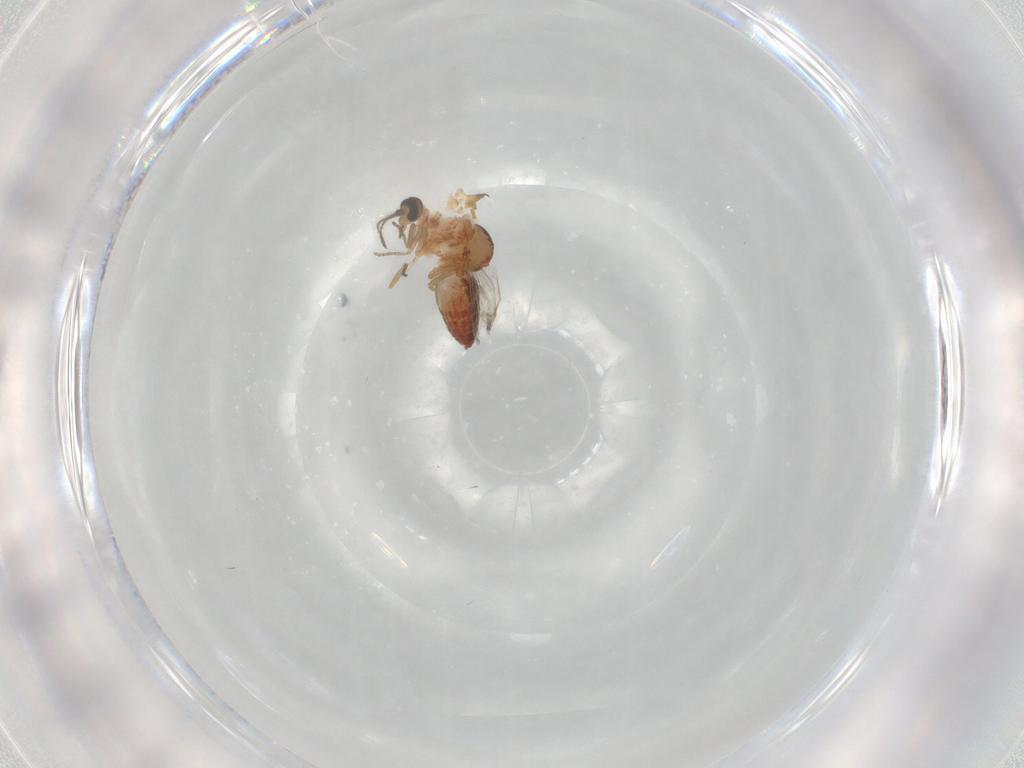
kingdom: Animalia
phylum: Arthropoda
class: Insecta
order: Diptera
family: Ceratopogonidae
